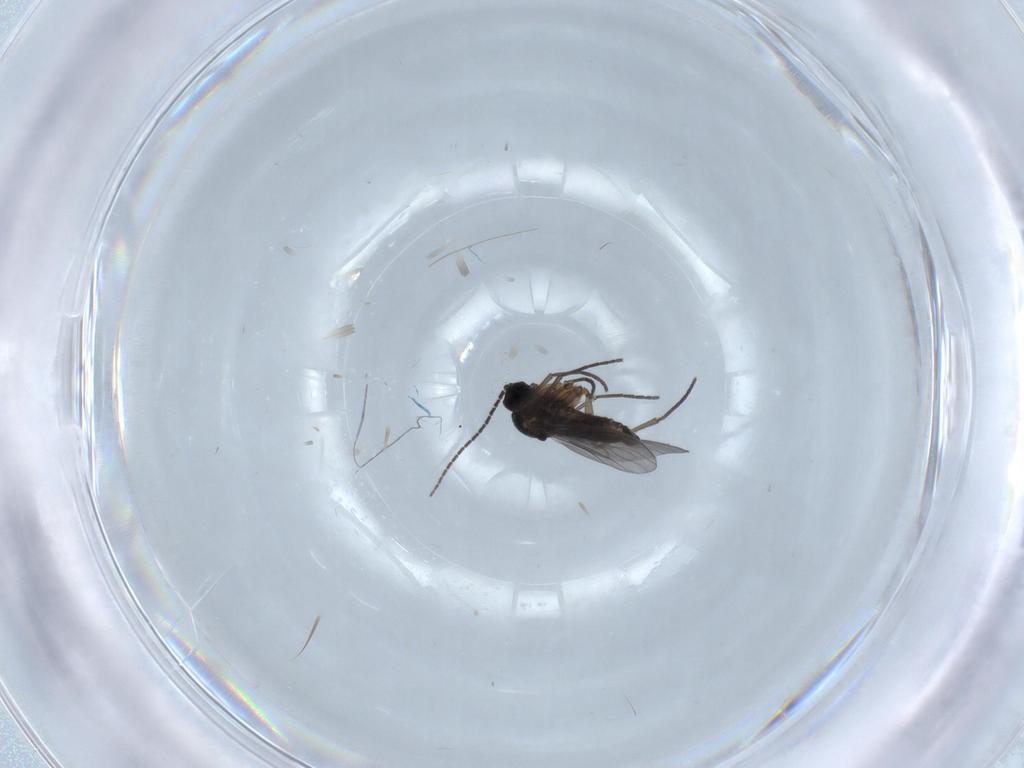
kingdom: Animalia
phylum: Arthropoda
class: Insecta
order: Diptera
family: Sciaridae
